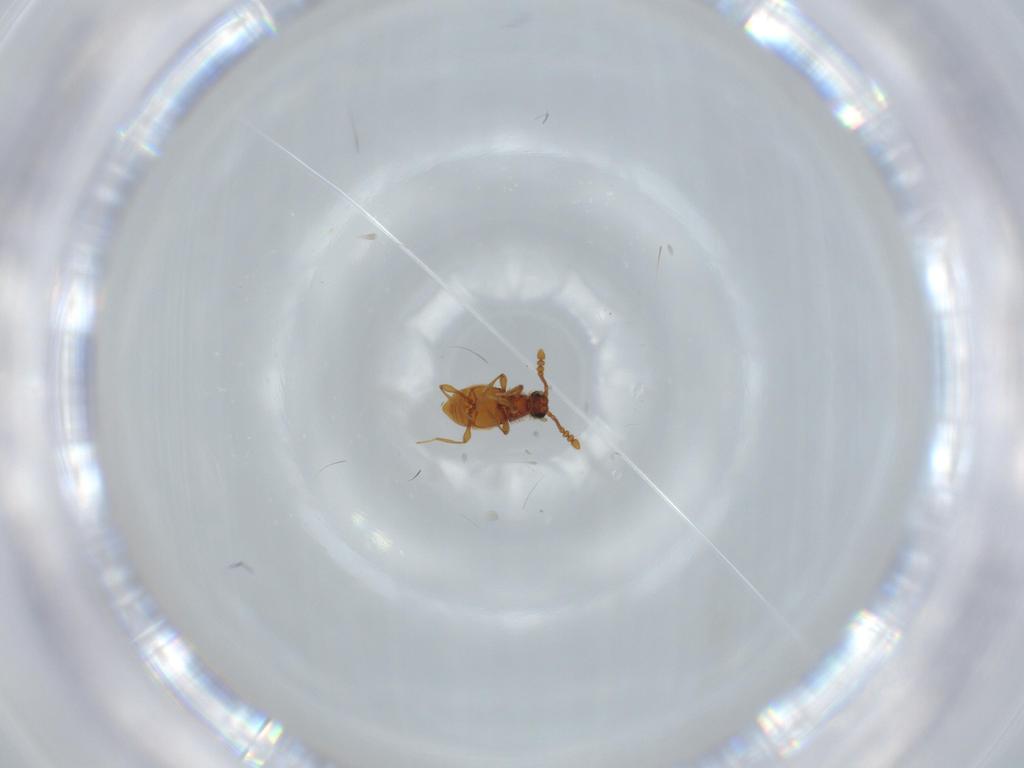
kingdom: Animalia
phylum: Arthropoda
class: Insecta
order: Coleoptera
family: Staphylinidae
